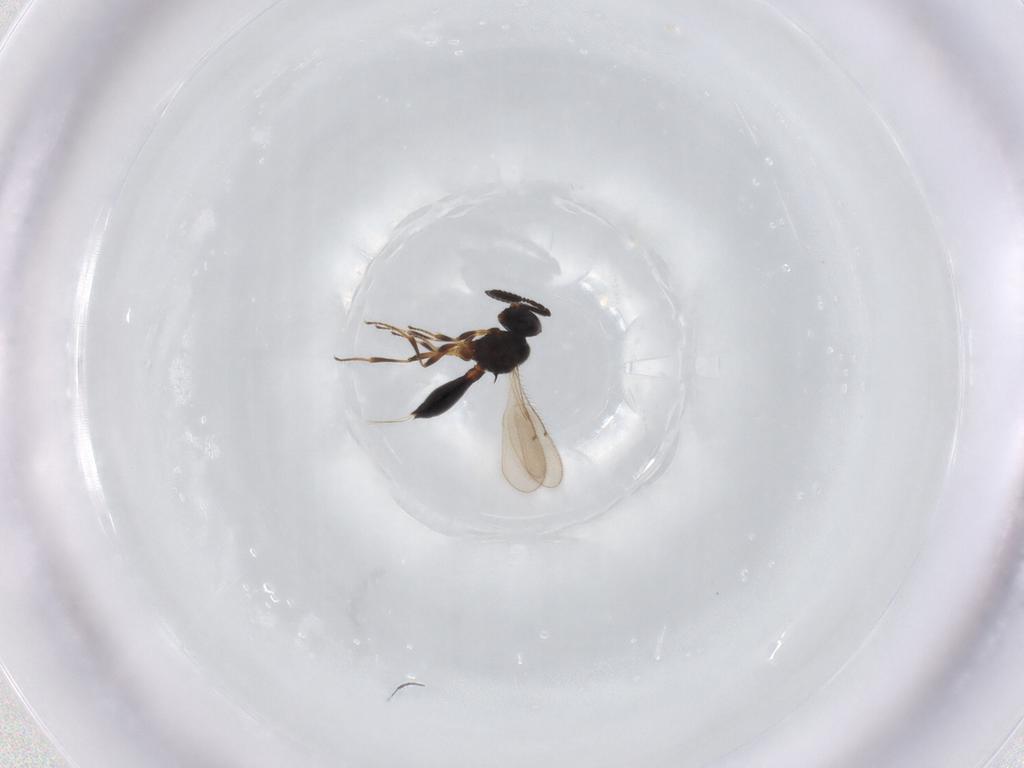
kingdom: Animalia
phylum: Arthropoda
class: Insecta
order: Hymenoptera
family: Scelionidae
